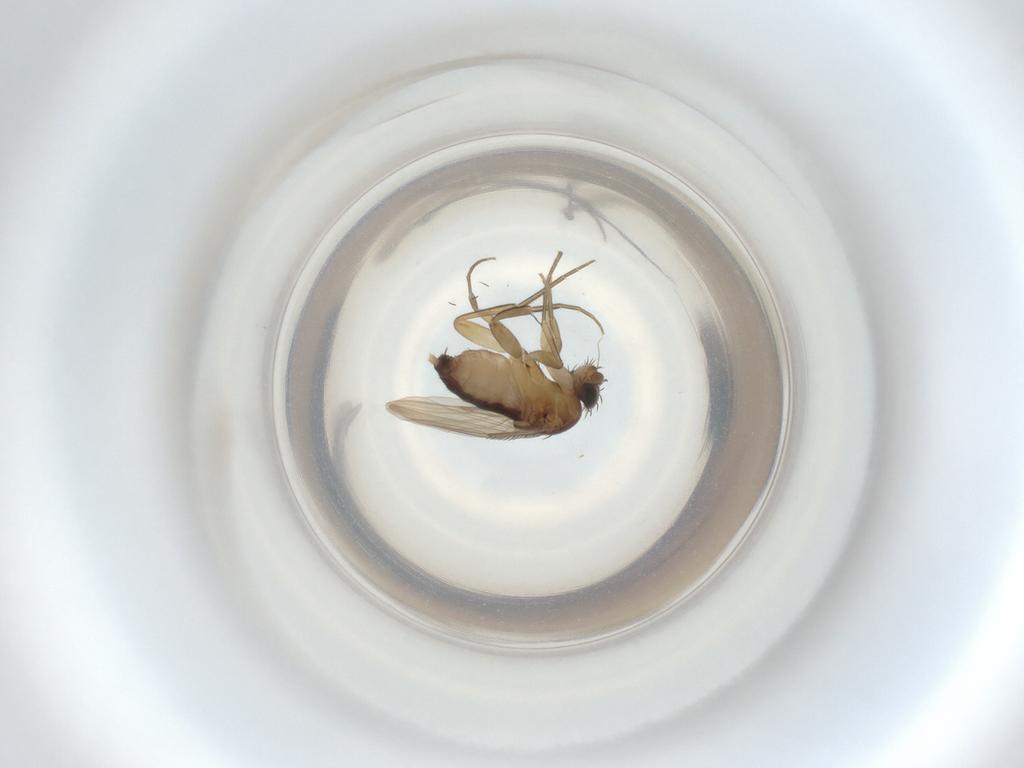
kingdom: Animalia
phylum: Arthropoda
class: Insecta
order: Diptera
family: Phoridae
